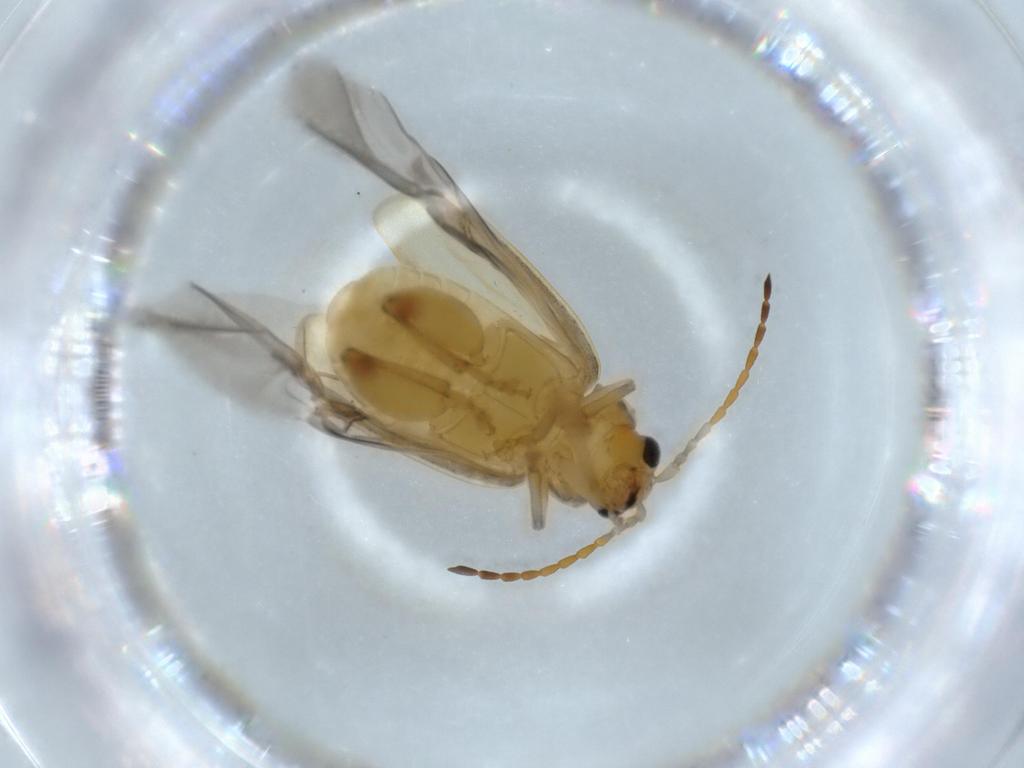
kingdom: Animalia
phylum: Arthropoda
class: Insecta
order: Coleoptera
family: Chrysomelidae
